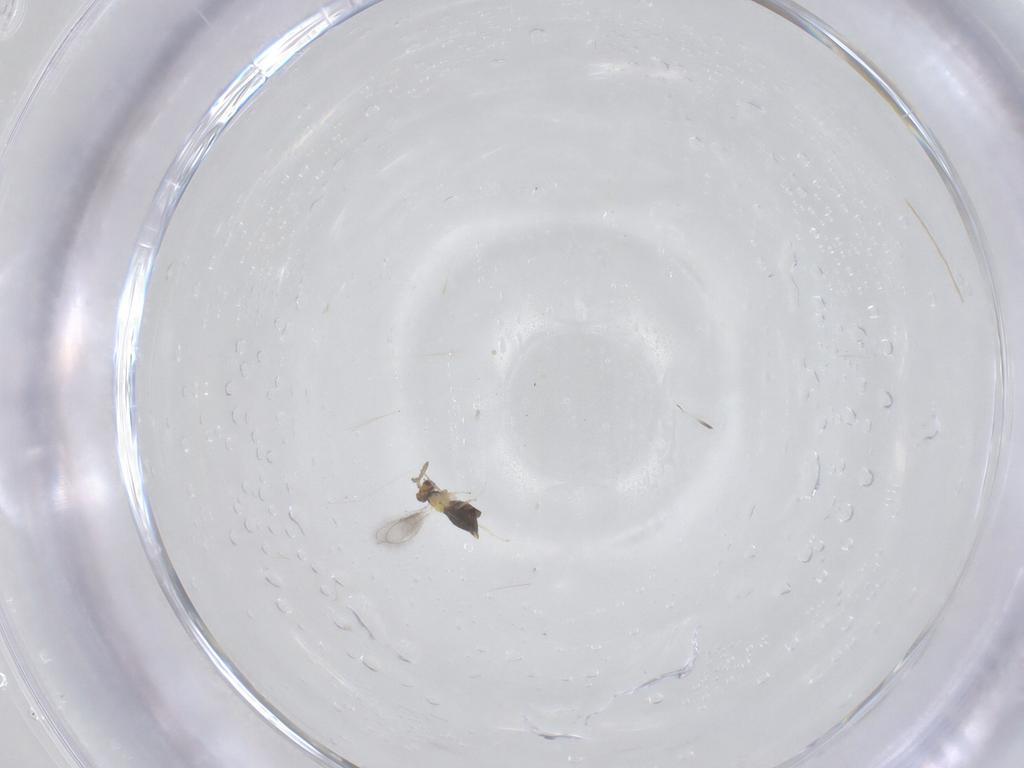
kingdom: Animalia
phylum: Arthropoda
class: Insecta
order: Hymenoptera
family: Aphelinidae
